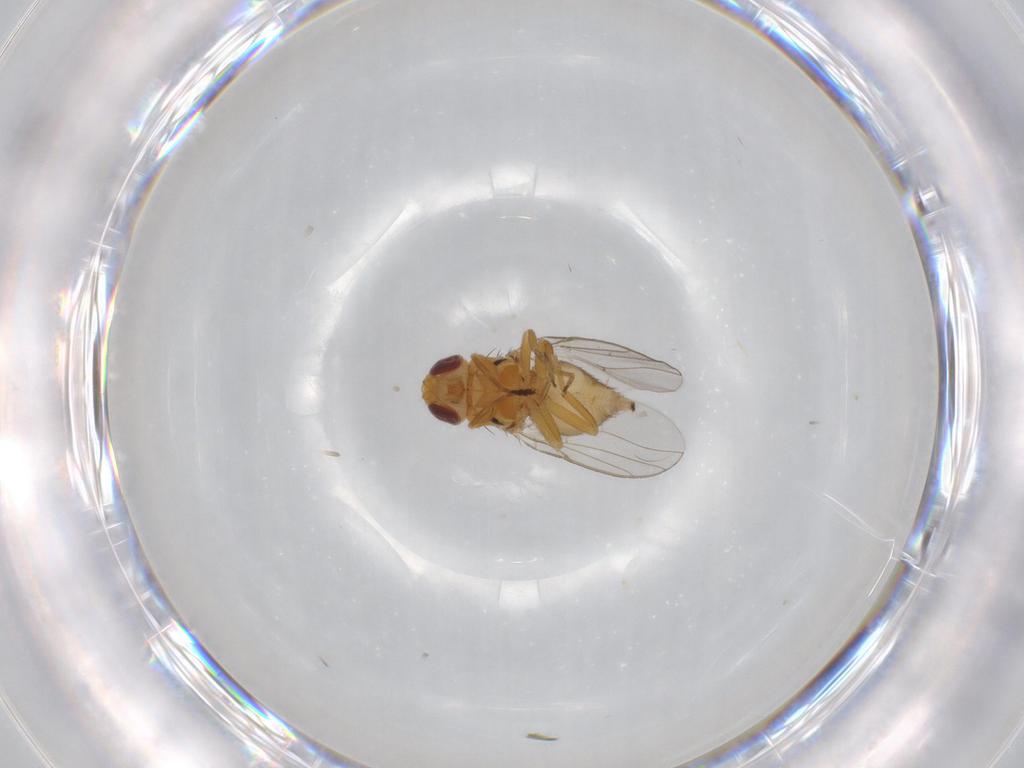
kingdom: Animalia
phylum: Arthropoda
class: Insecta
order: Diptera
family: Chloropidae
